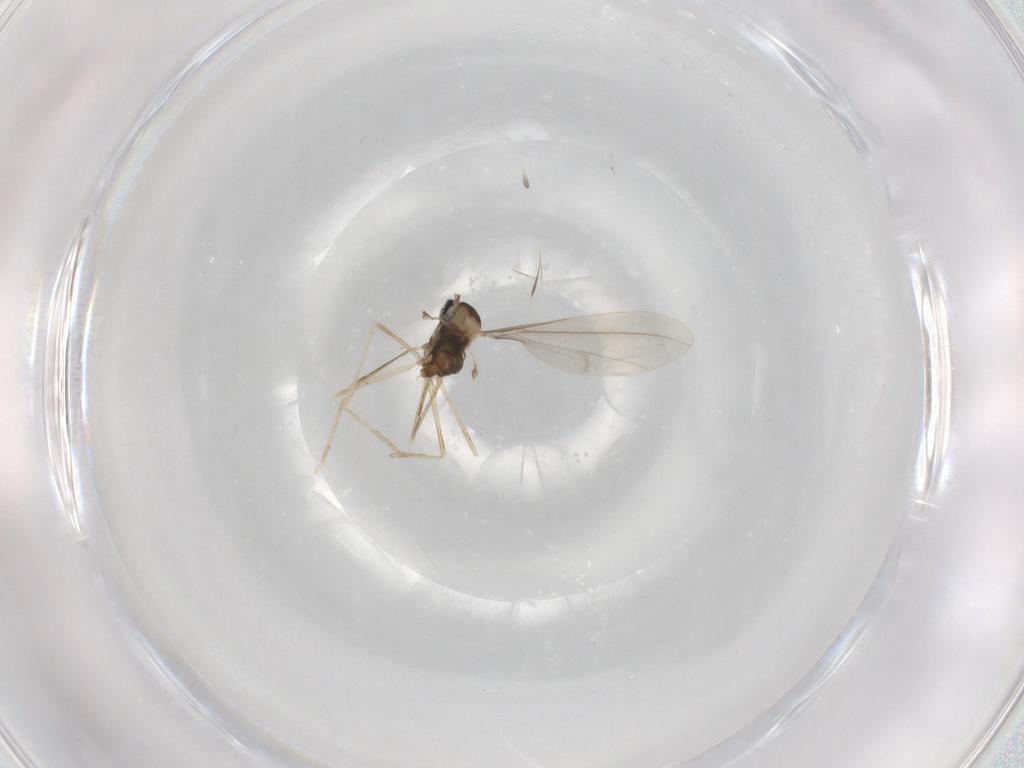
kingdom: Animalia
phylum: Arthropoda
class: Insecta
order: Diptera
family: Cecidomyiidae
